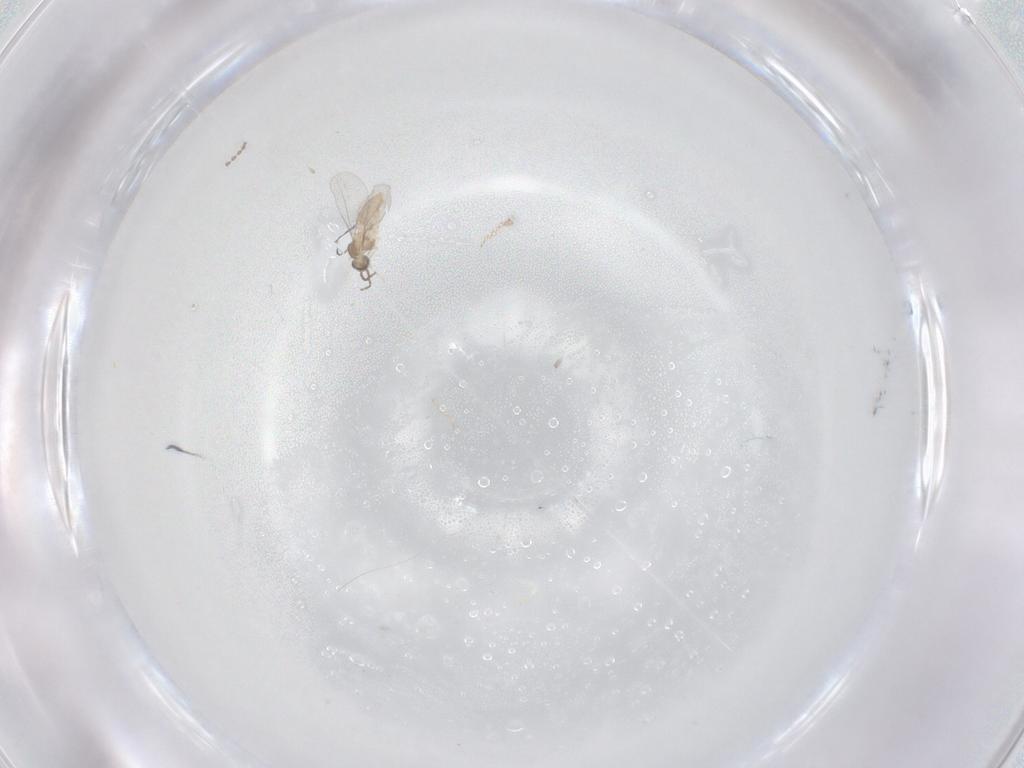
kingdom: Animalia
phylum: Arthropoda
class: Insecta
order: Diptera
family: Cecidomyiidae
